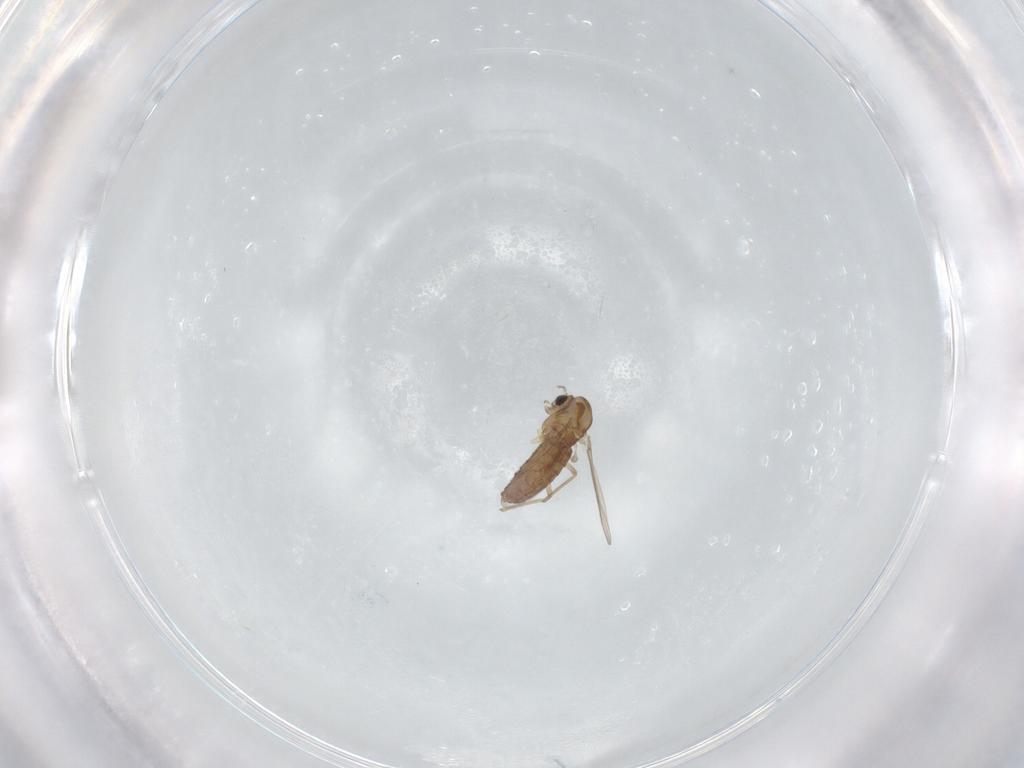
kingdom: Animalia
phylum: Arthropoda
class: Insecta
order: Diptera
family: Chironomidae
